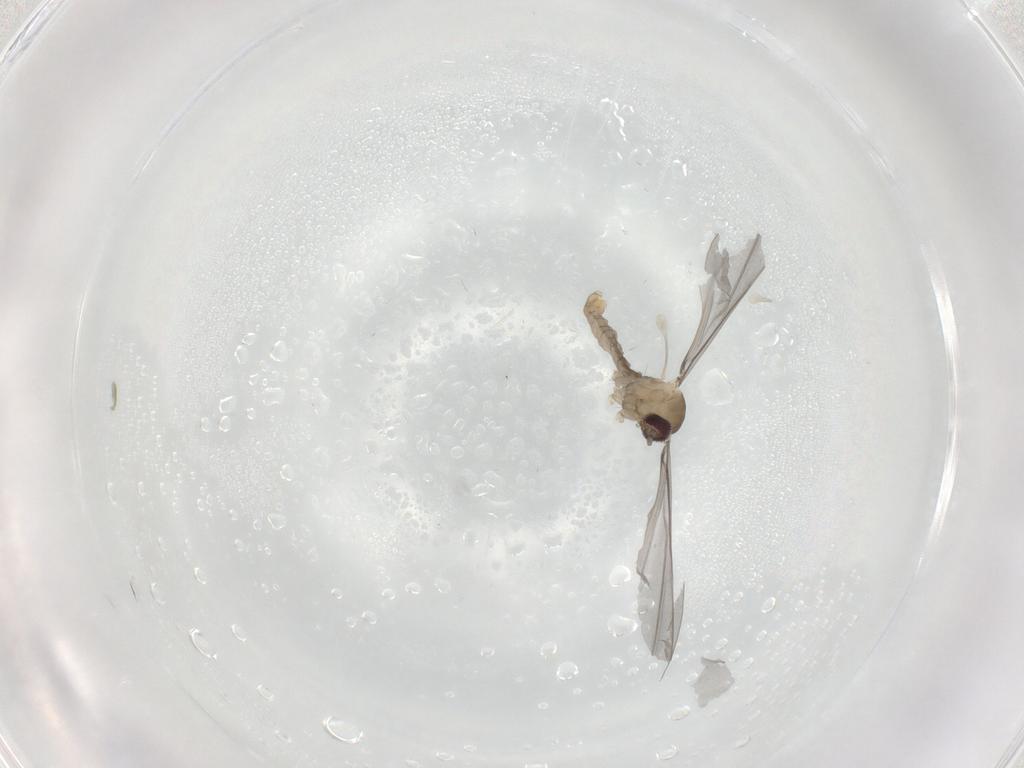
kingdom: Animalia
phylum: Arthropoda
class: Insecta
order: Diptera
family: Cecidomyiidae
